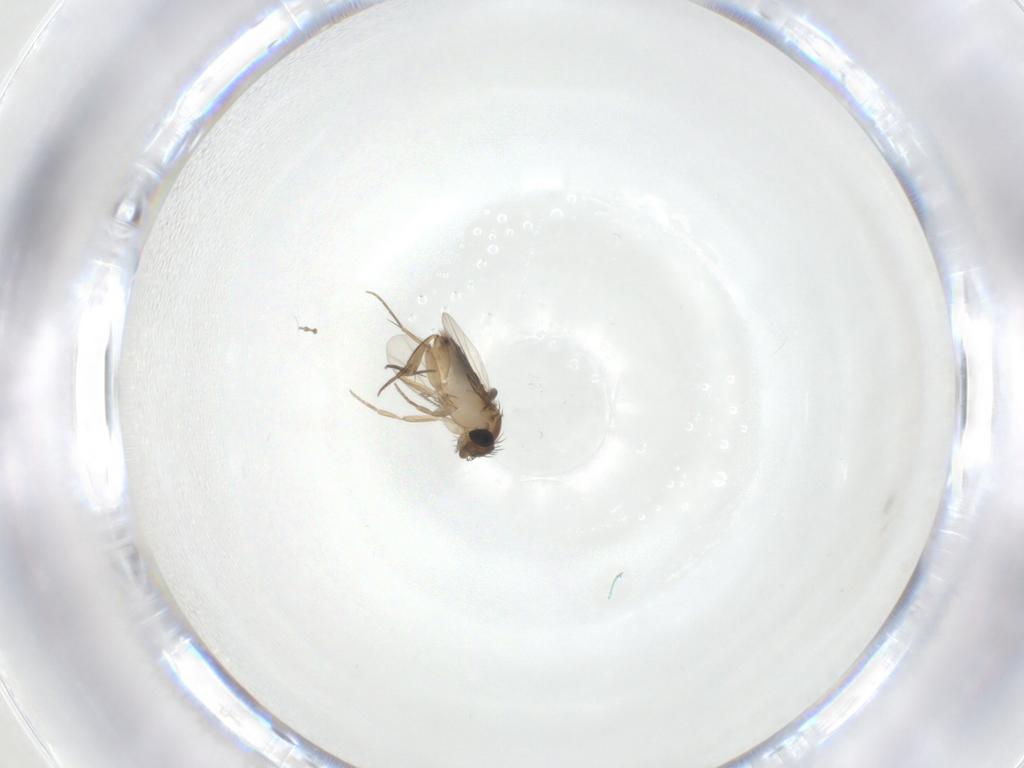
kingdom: Animalia
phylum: Arthropoda
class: Insecta
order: Diptera
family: Phoridae
